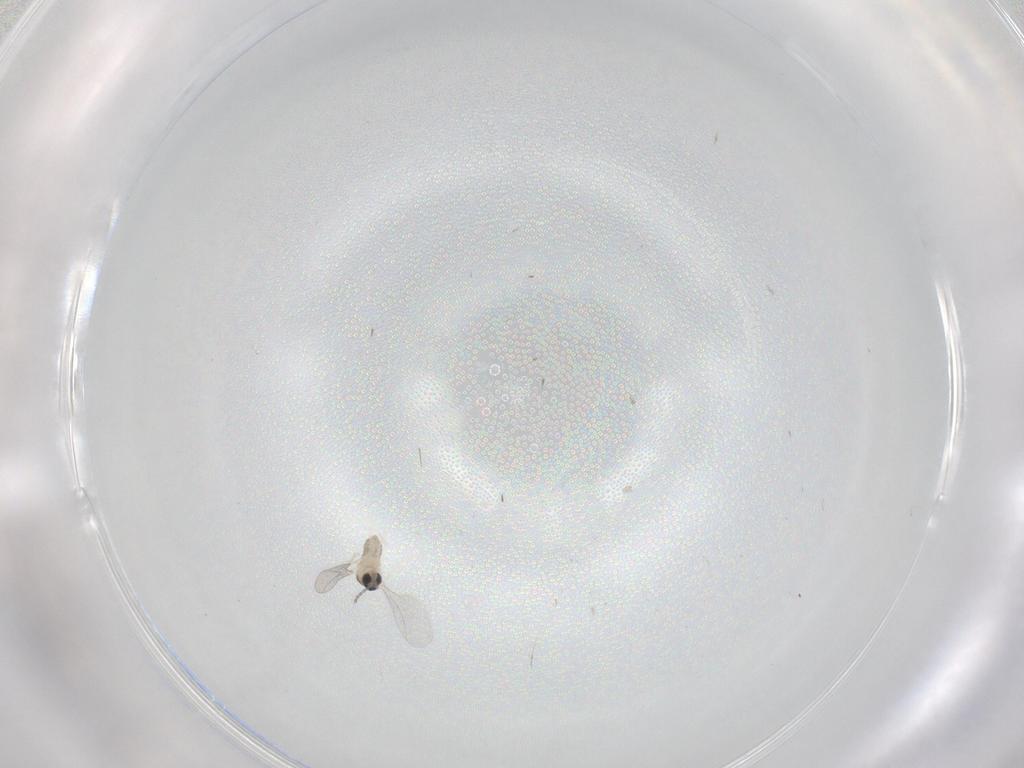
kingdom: Animalia
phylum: Arthropoda
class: Insecta
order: Diptera
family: Cecidomyiidae
